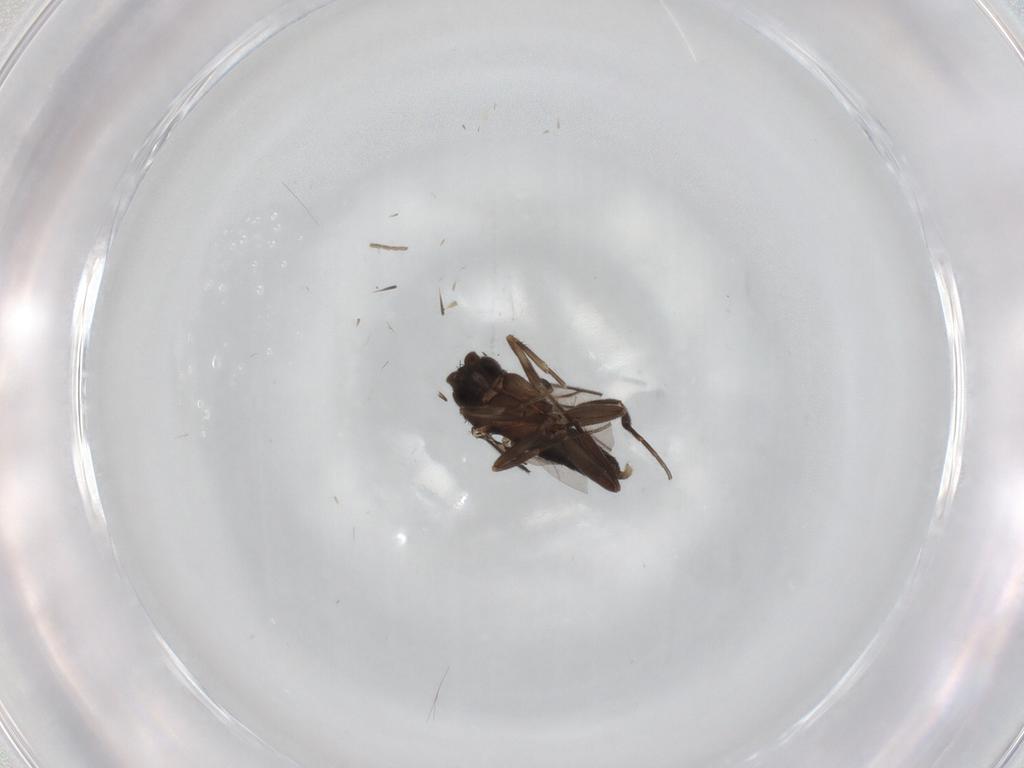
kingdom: Animalia
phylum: Arthropoda
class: Insecta
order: Diptera
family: Phoridae
